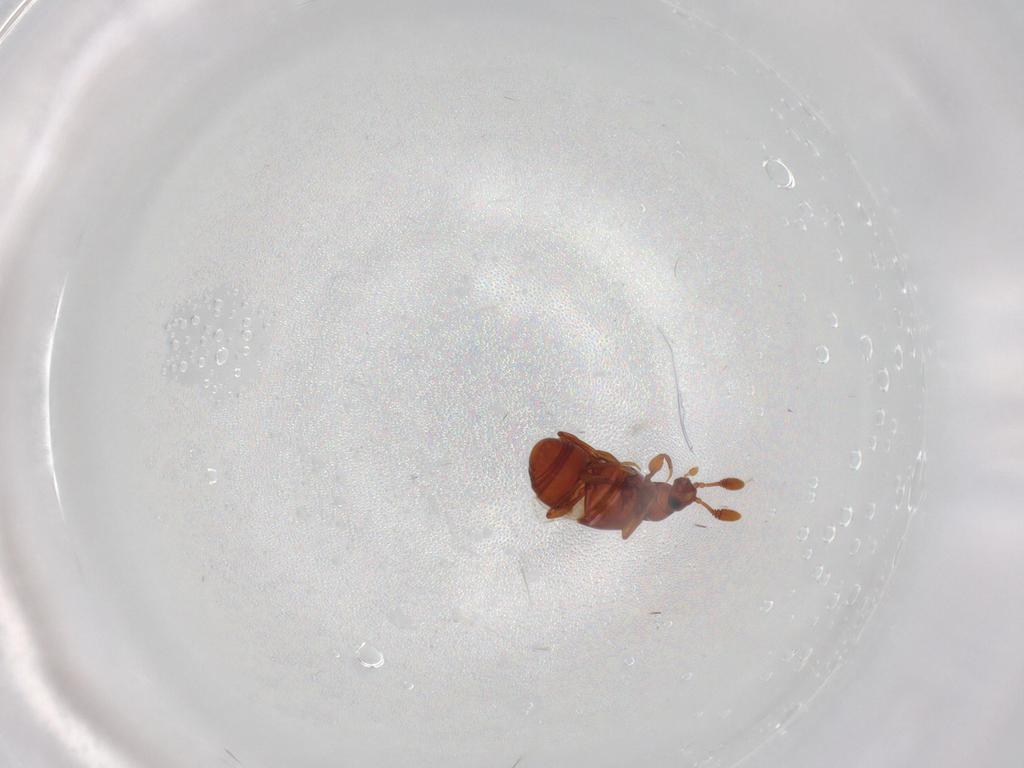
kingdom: Animalia
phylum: Arthropoda
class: Insecta
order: Coleoptera
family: Staphylinidae
